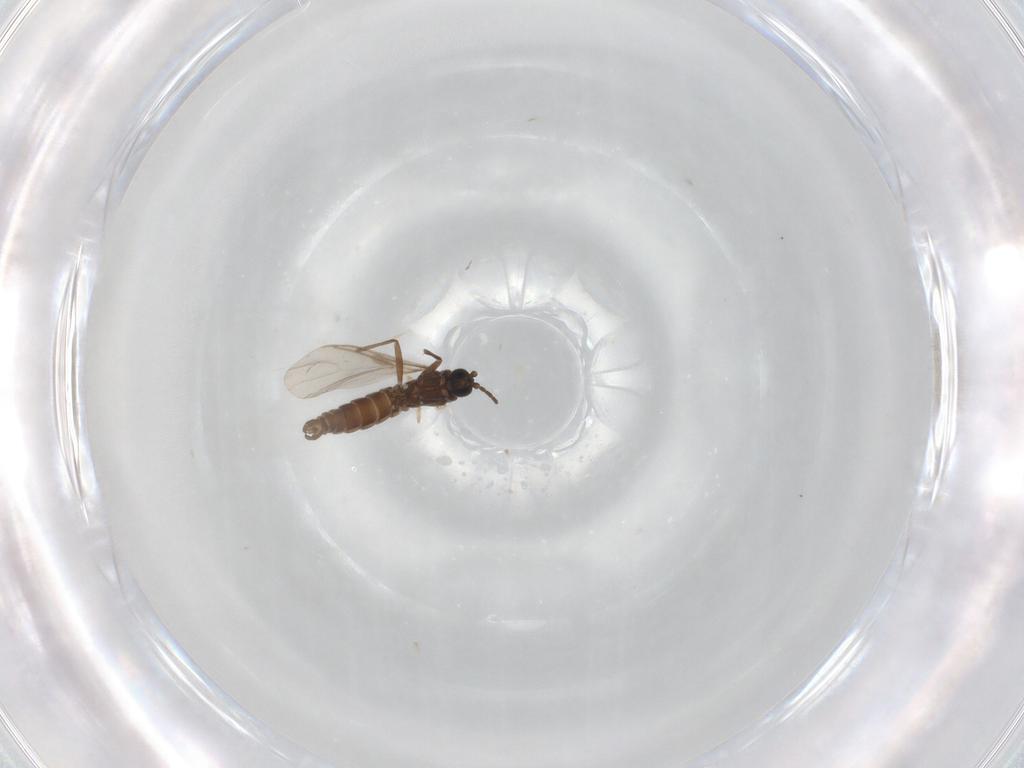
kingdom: Animalia
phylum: Arthropoda
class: Insecta
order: Diptera
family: Sciaridae
